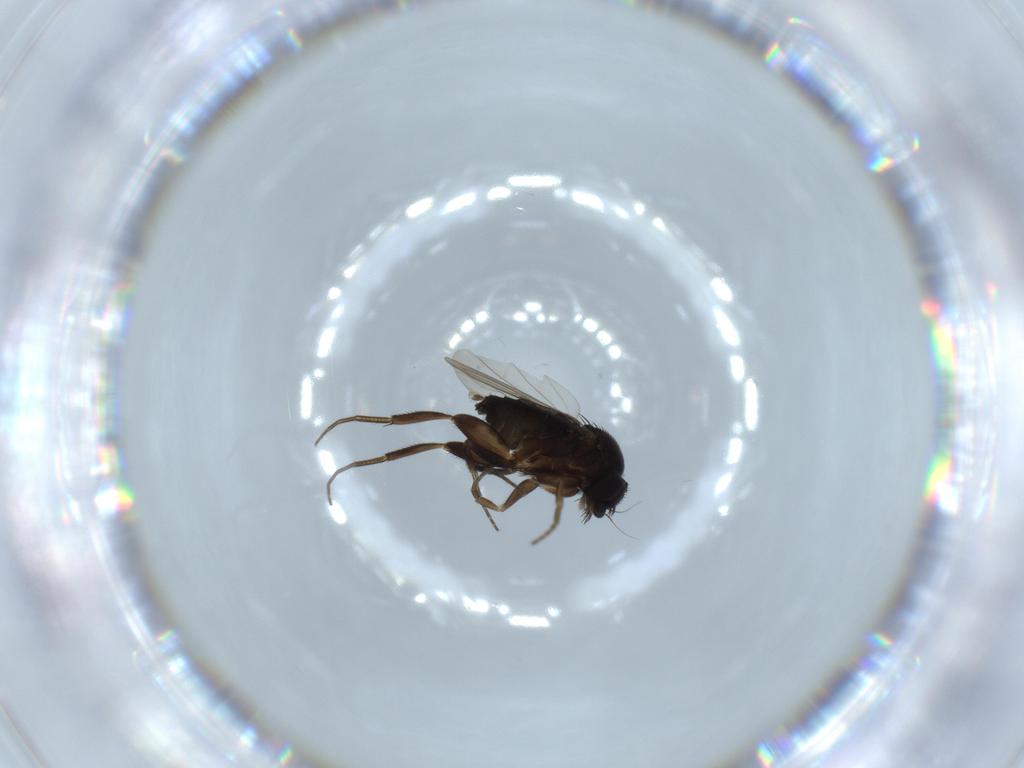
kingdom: Animalia
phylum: Arthropoda
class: Insecta
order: Diptera
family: Phoridae
